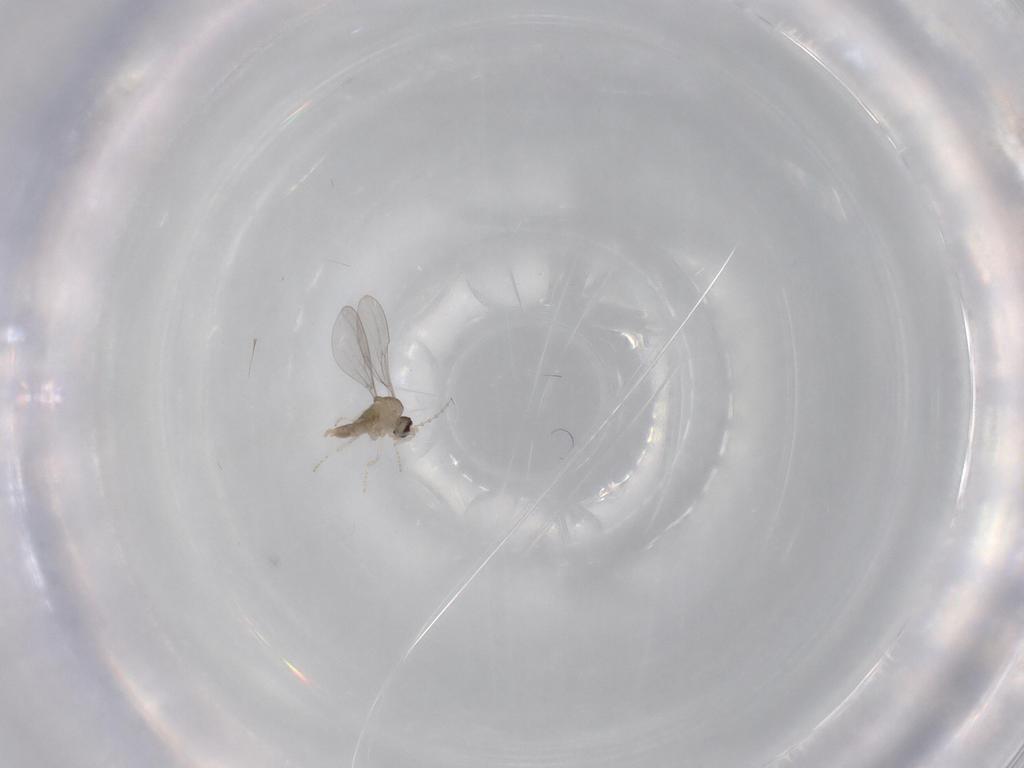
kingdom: Animalia
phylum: Arthropoda
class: Insecta
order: Diptera
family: Cecidomyiidae
